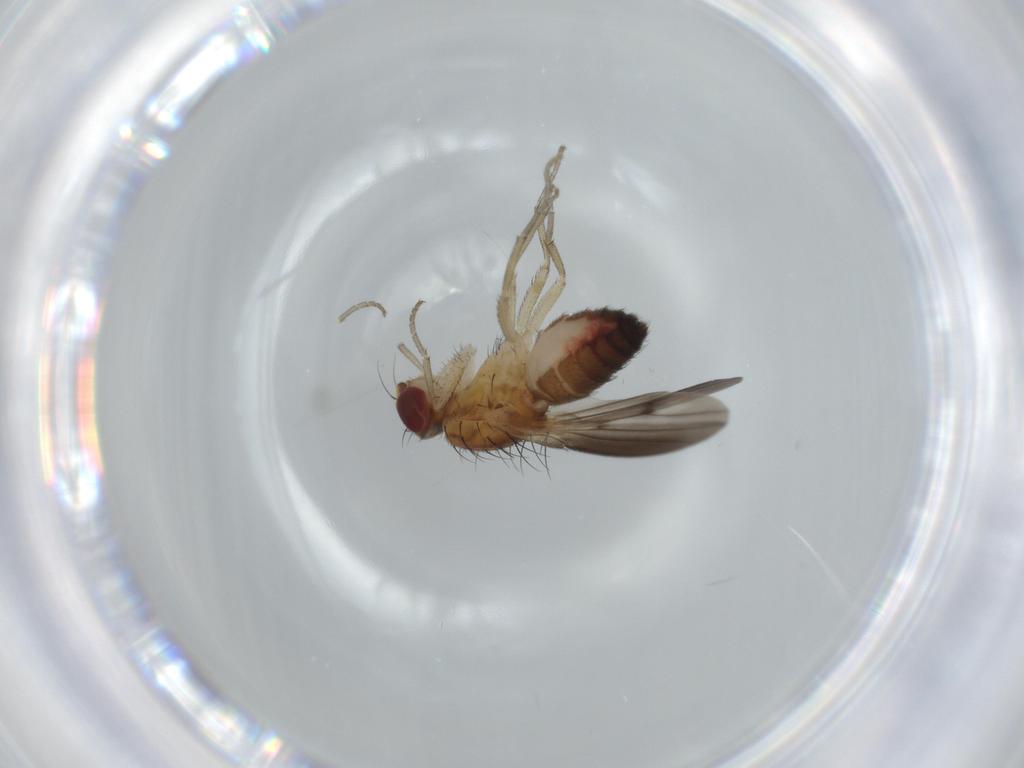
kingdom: Animalia
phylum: Arthropoda
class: Insecta
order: Diptera
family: Heleomyzidae
